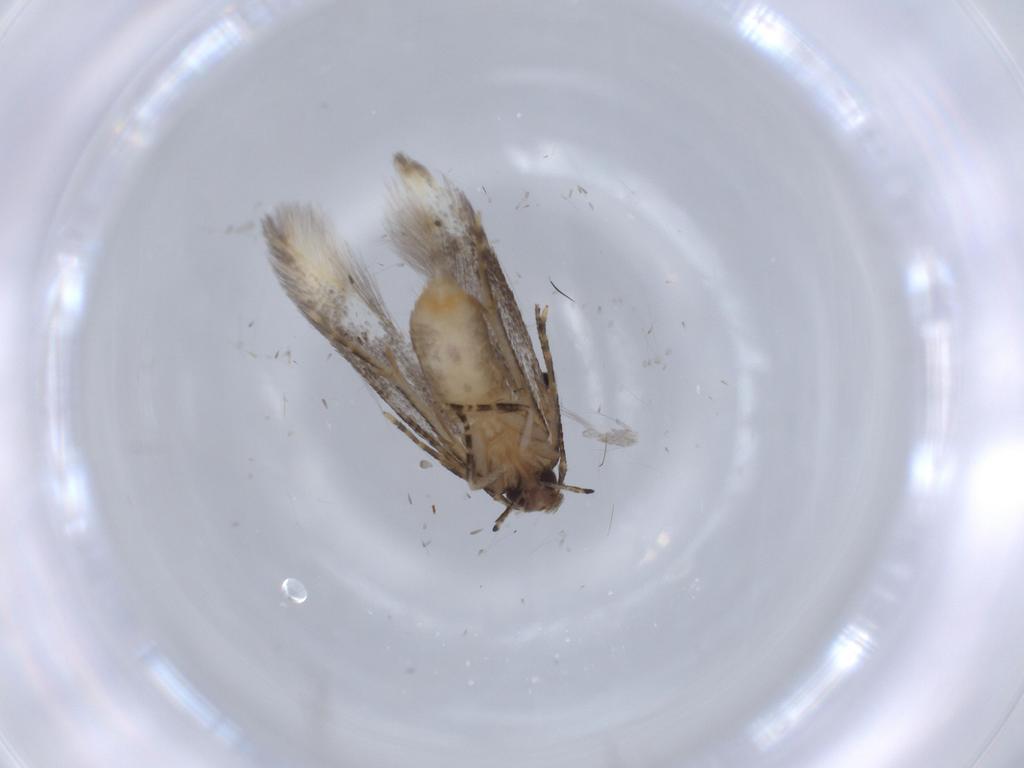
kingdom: Animalia
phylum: Arthropoda
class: Insecta
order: Lepidoptera
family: Stathmopodidae
